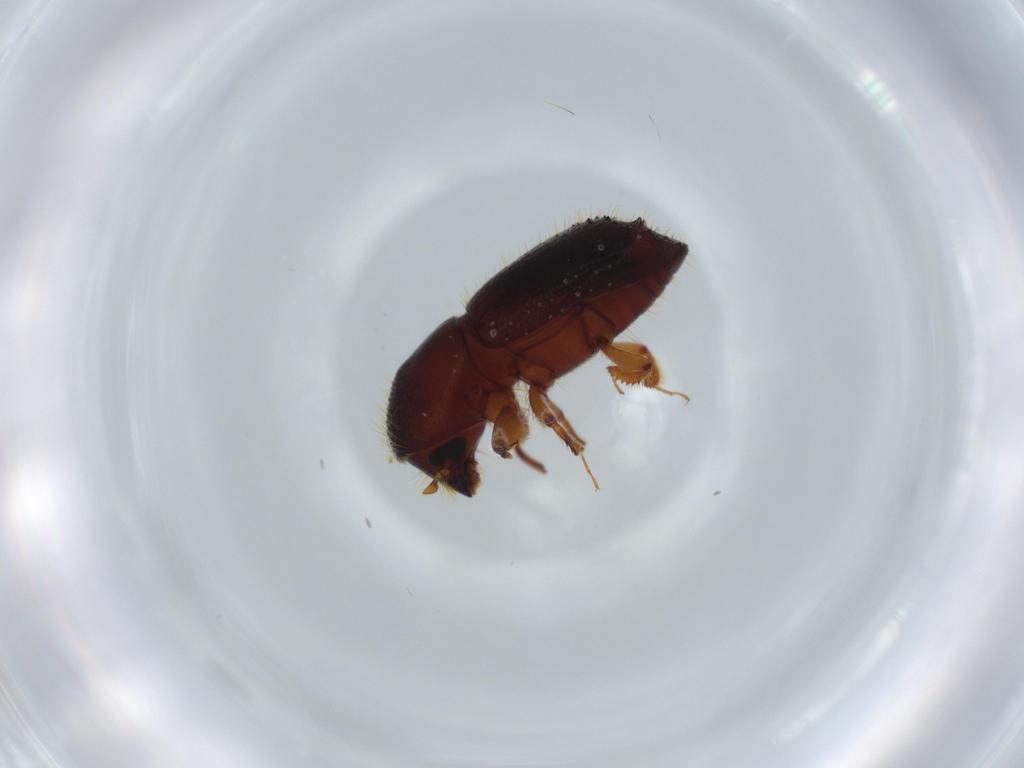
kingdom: Animalia
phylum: Arthropoda
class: Insecta
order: Coleoptera
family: Curculionidae
